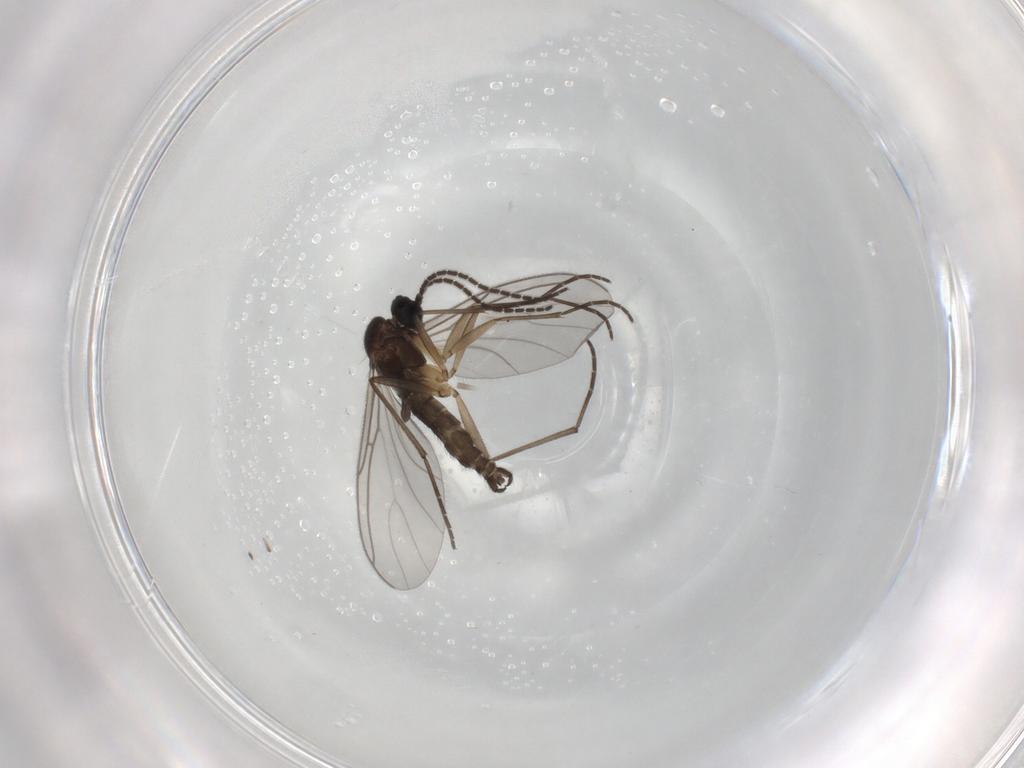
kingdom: Animalia
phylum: Arthropoda
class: Insecta
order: Diptera
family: Sciaridae
